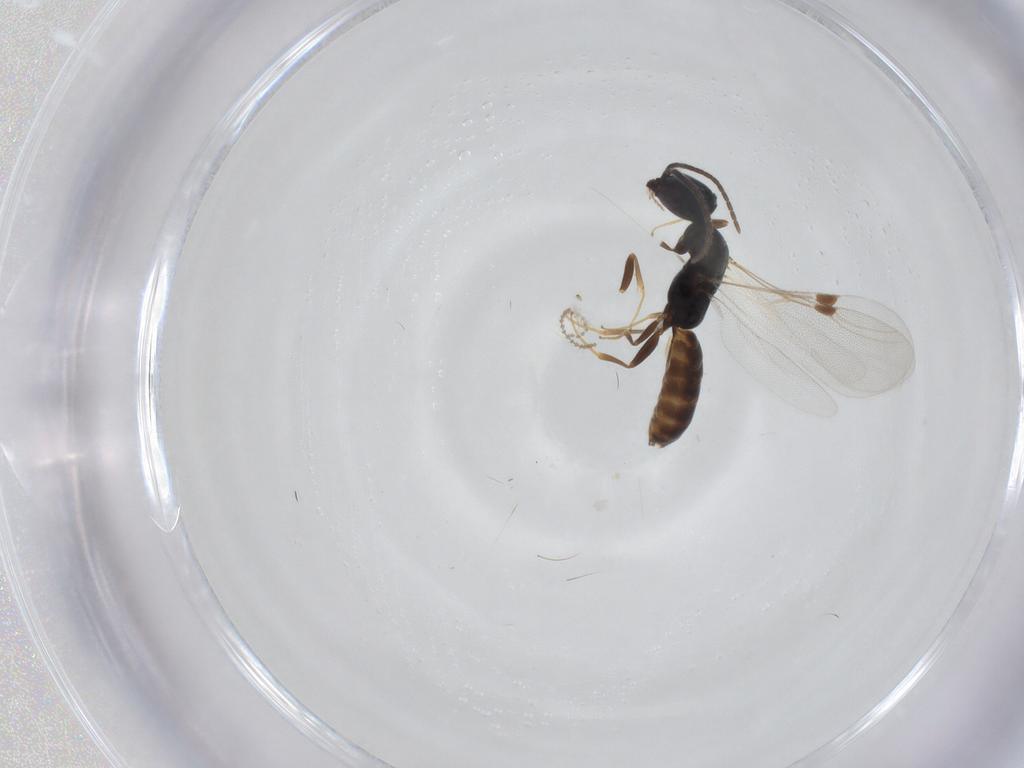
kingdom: Animalia
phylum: Arthropoda
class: Insecta
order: Hymenoptera
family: Bethylidae
